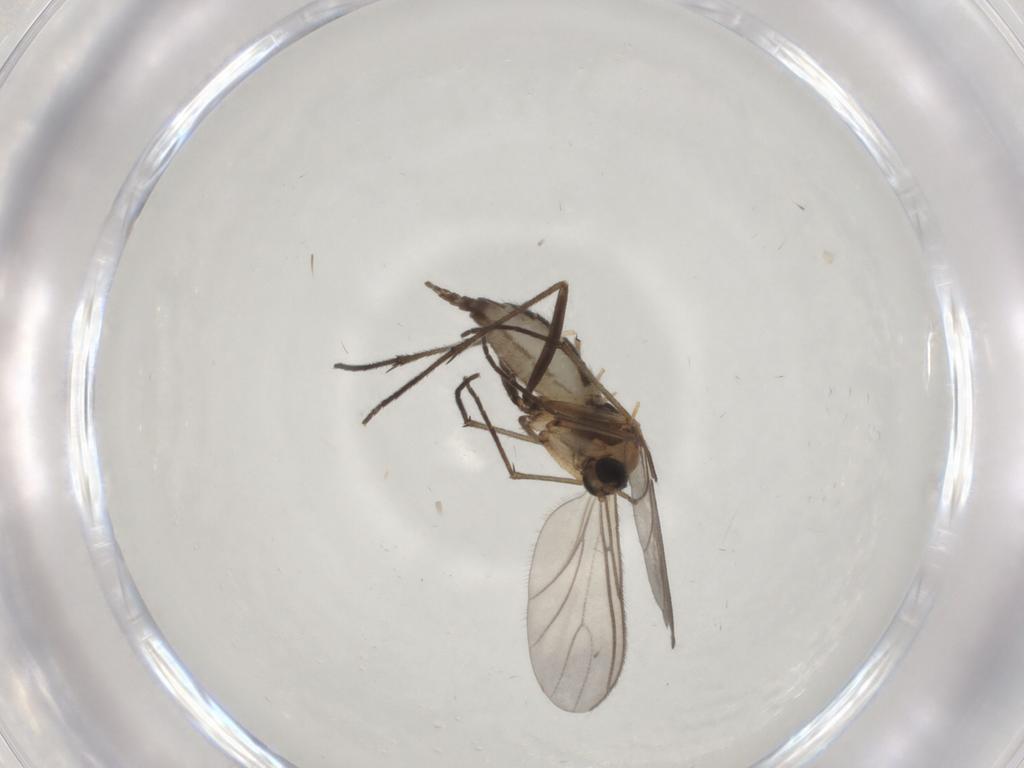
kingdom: Animalia
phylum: Arthropoda
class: Insecta
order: Diptera
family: Chironomidae
